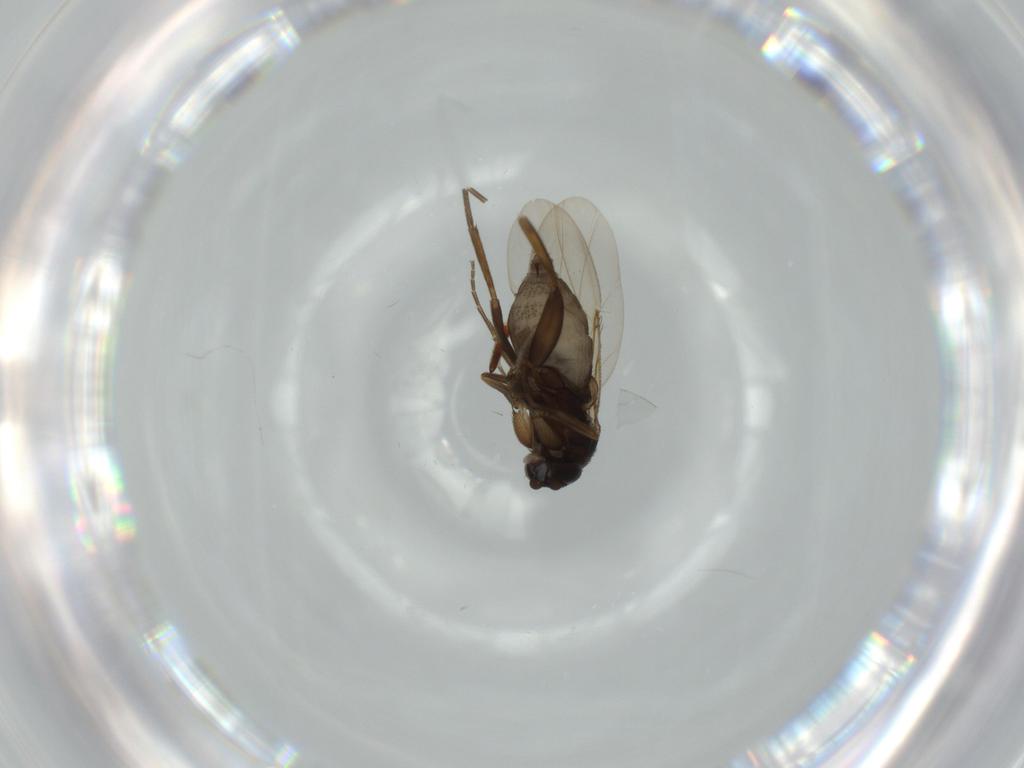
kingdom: Animalia
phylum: Arthropoda
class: Insecta
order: Diptera
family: Phoridae
